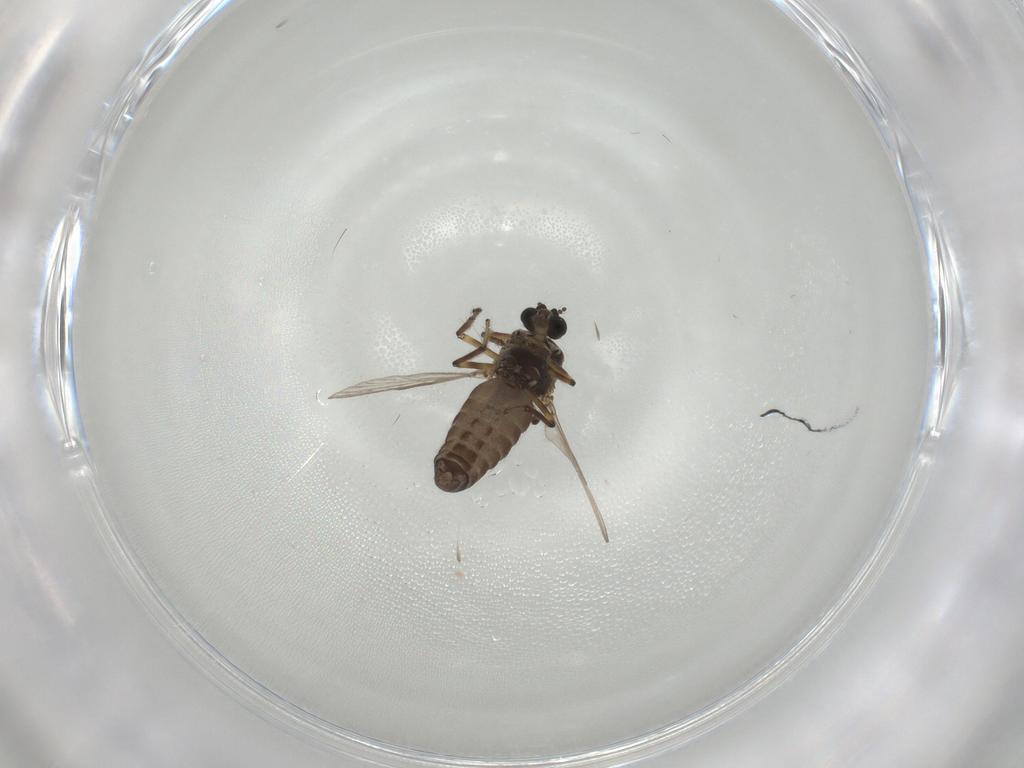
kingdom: Animalia
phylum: Arthropoda
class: Insecta
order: Diptera
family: Ceratopogonidae
